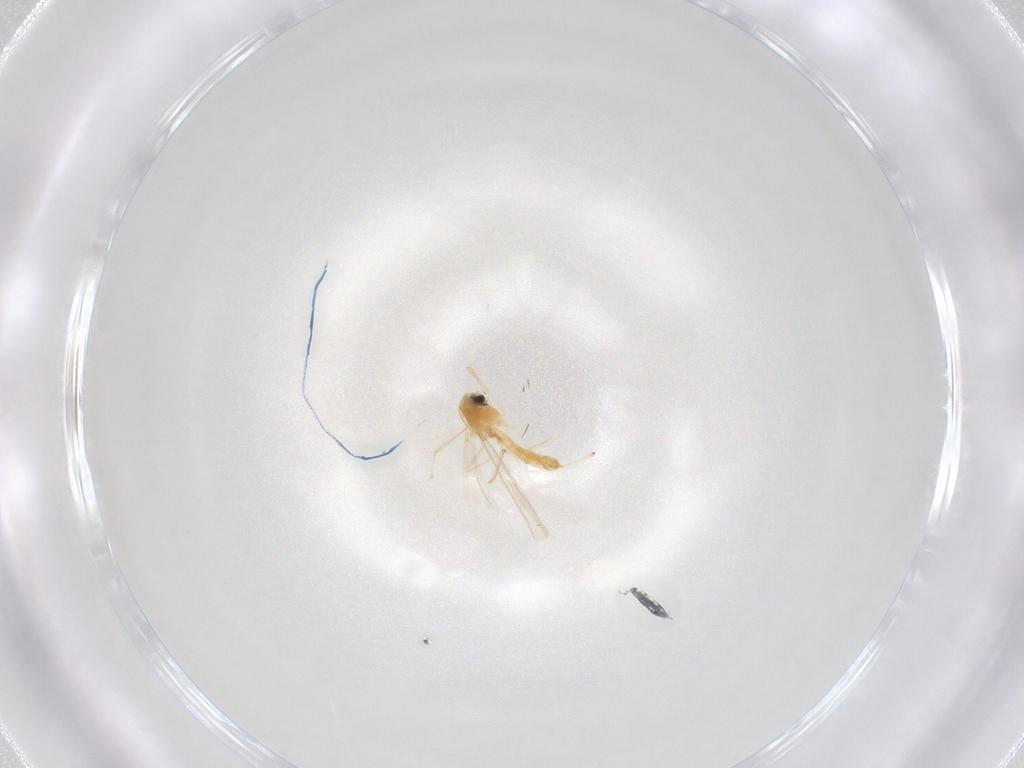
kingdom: Animalia
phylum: Arthropoda
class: Insecta
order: Diptera
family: Chironomidae
